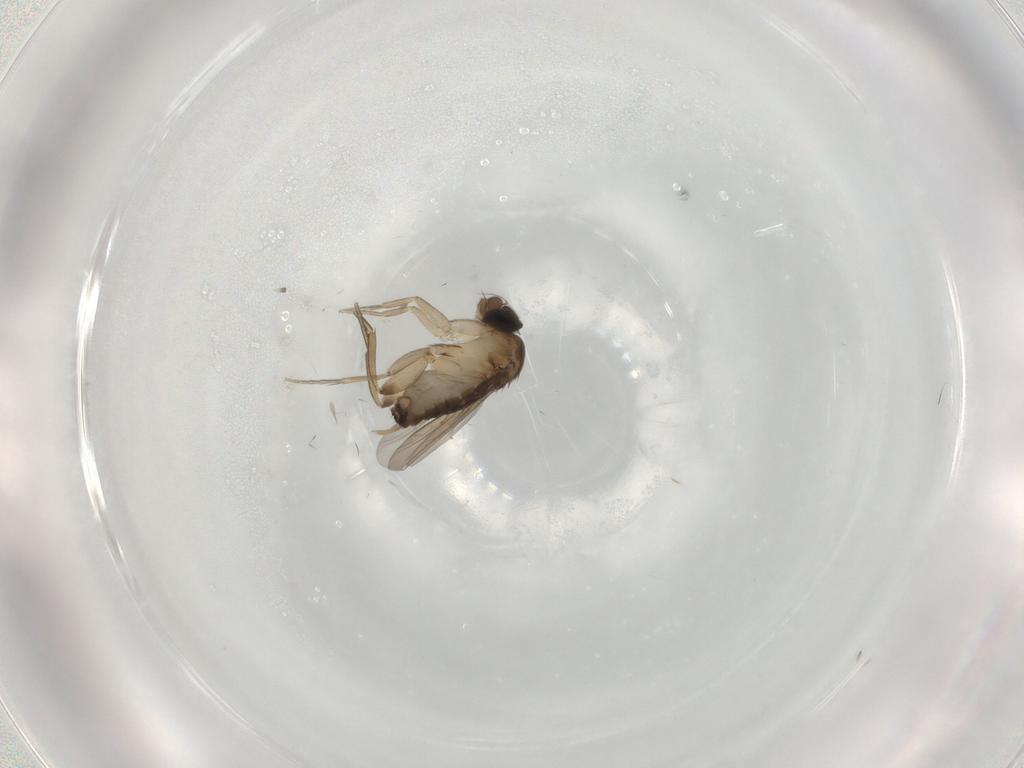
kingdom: Animalia
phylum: Arthropoda
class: Insecta
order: Diptera
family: Phoridae
